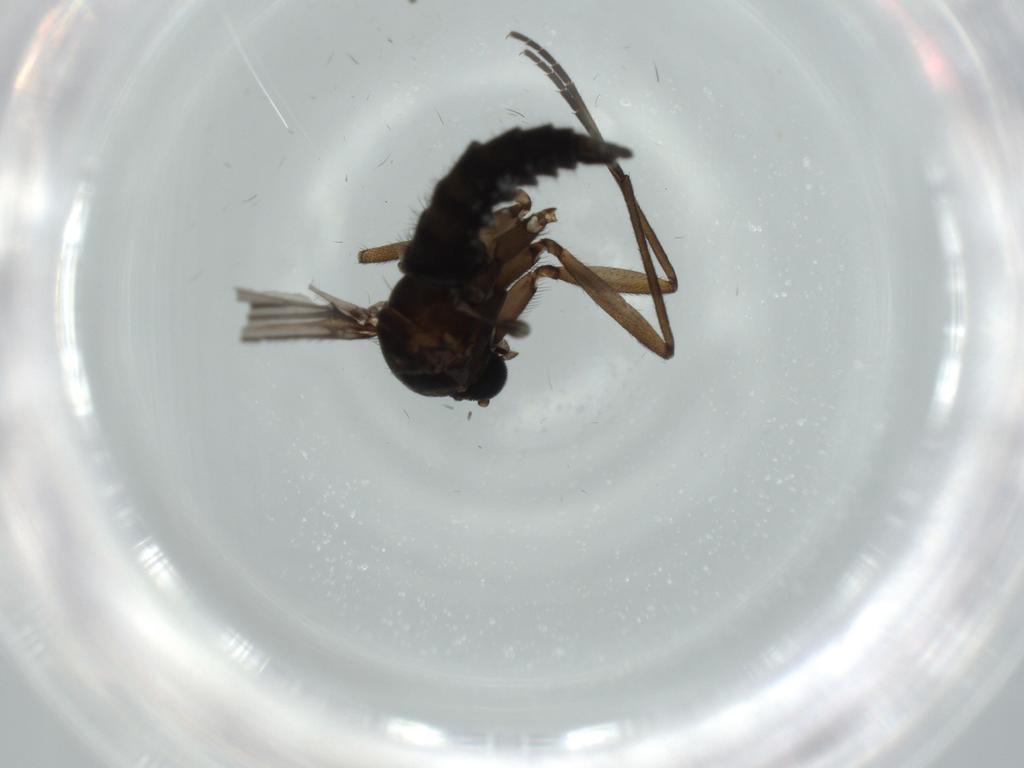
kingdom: Animalia
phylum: Arthropoda
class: Insecta
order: Diptera
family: Sciaridae
